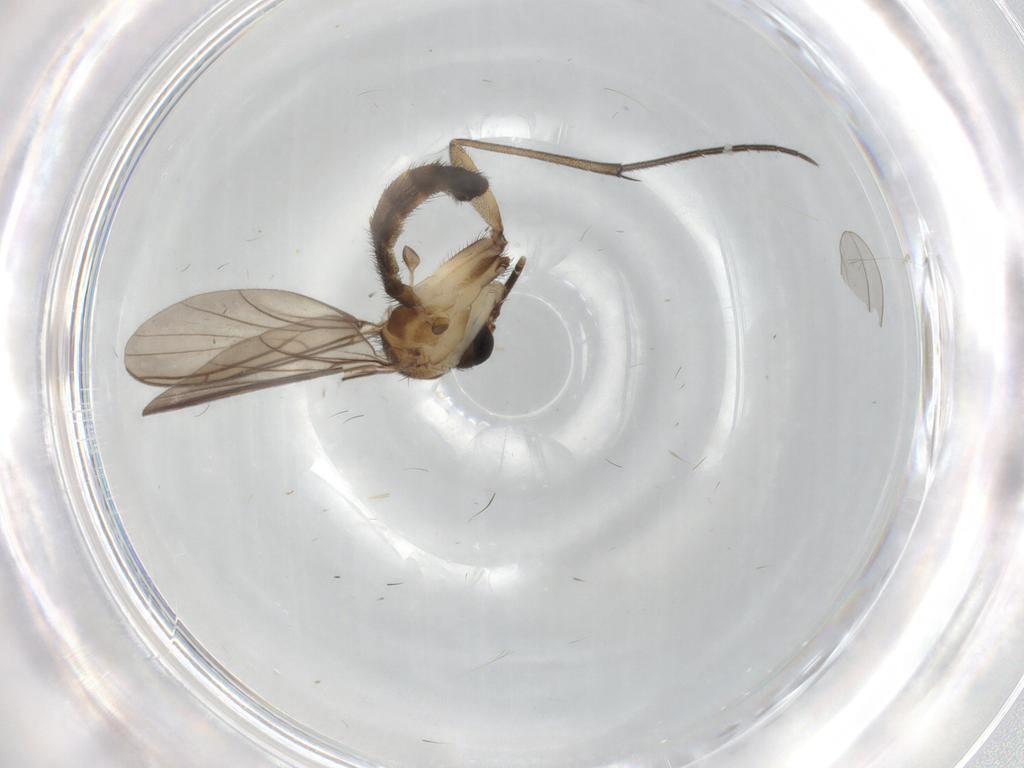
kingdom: Animalia
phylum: Arthropoda
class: Insecta
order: Diptera
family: Keroplatidae
